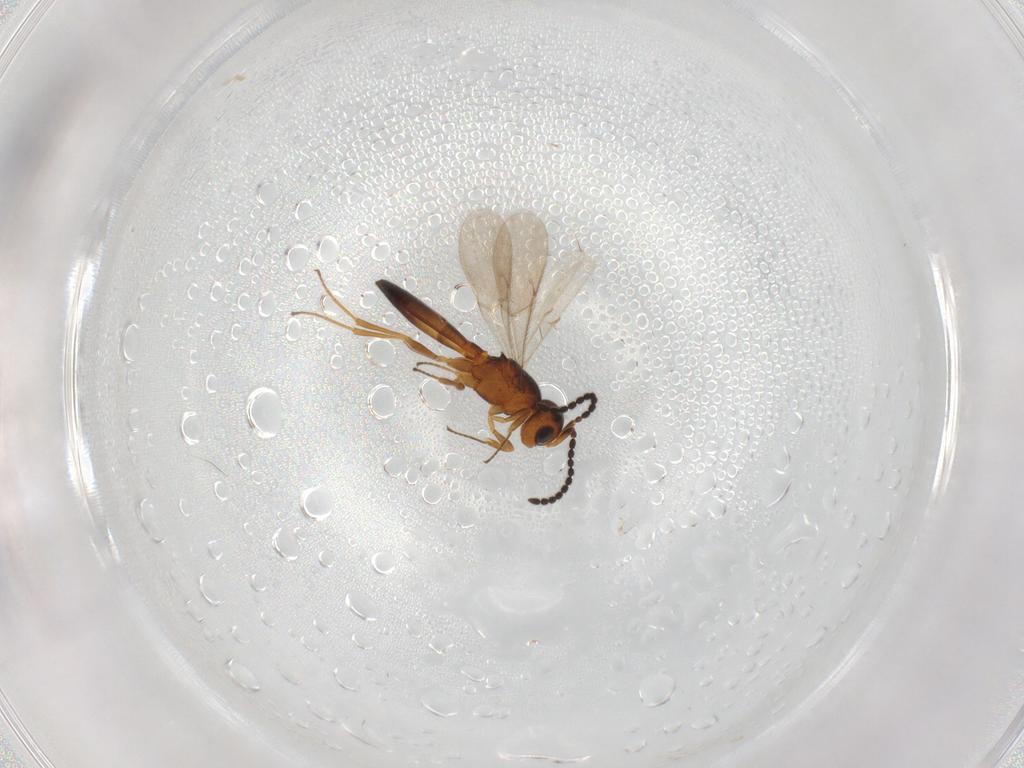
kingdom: Animalia
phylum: Arthropoda
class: Insecta
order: Hymenoptera
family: Scelionidae
